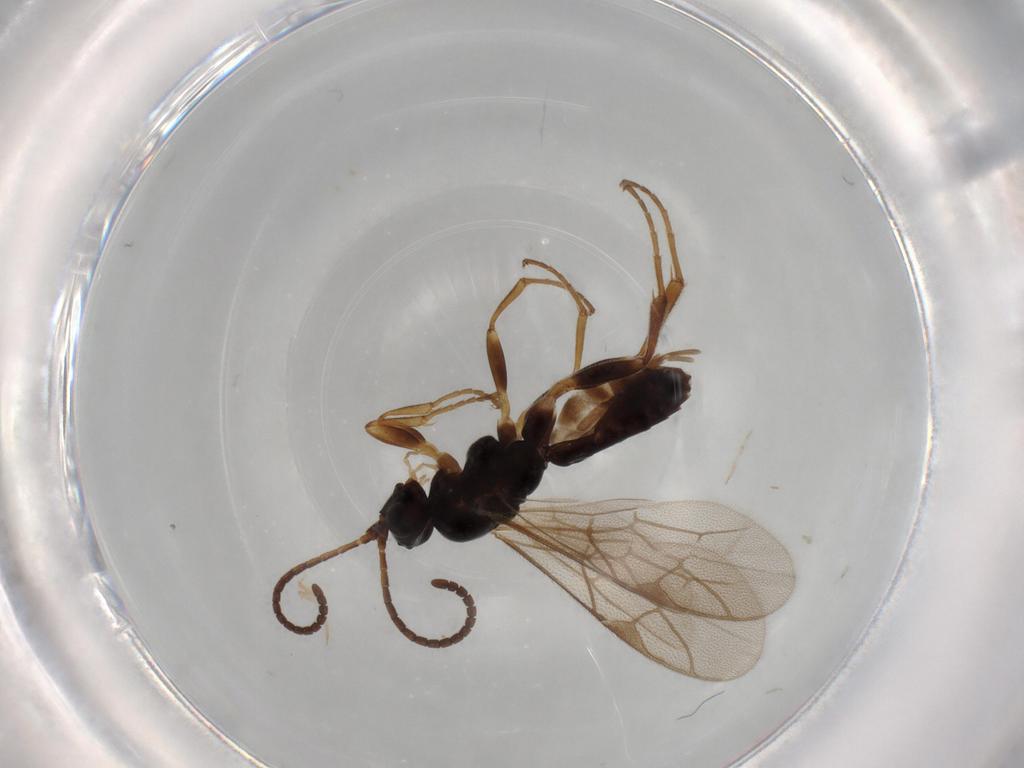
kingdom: Animalia
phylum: Arthropoda
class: Insecta
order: Hymenoptera
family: Ichneumonidae
